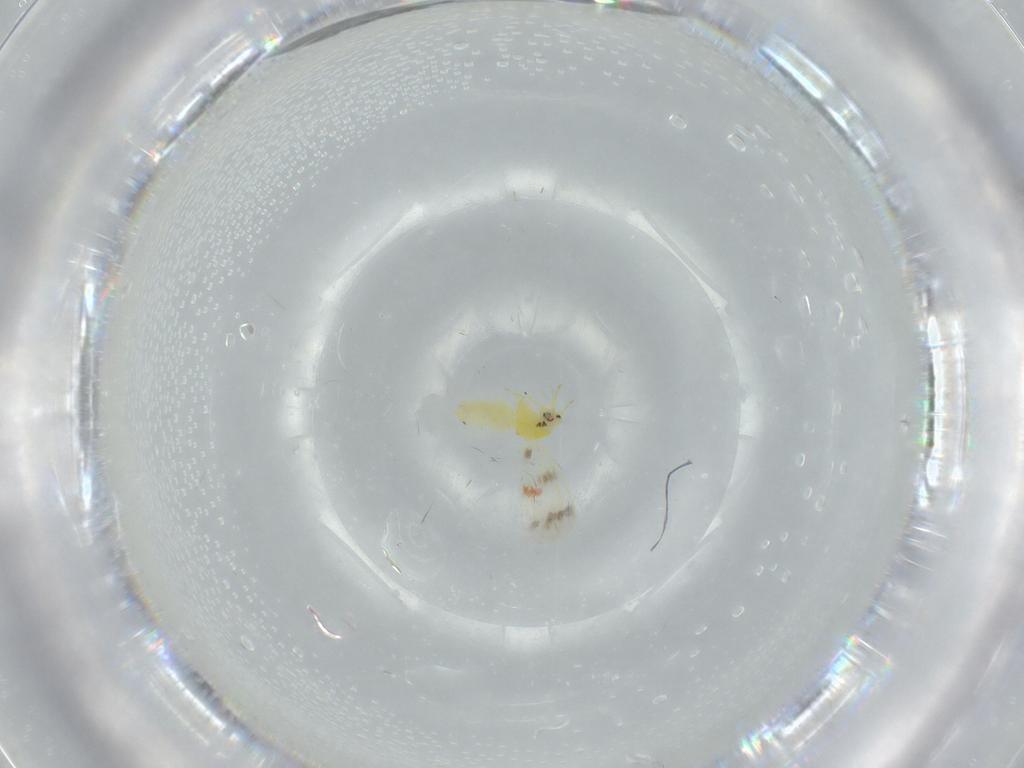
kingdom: Animalia
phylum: Arthropoda
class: Insecta
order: Hemiptera
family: Aleyrodidae
